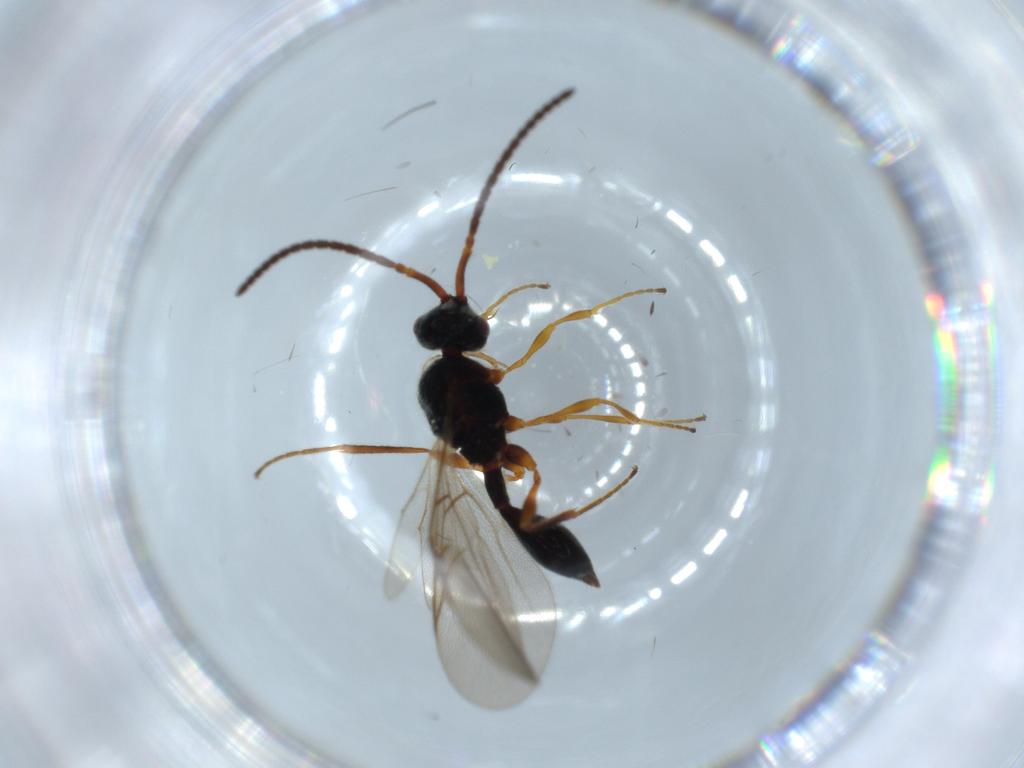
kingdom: Animalia
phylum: Arthropoda
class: Insecta
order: Hymenoptera
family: Diapriidae
